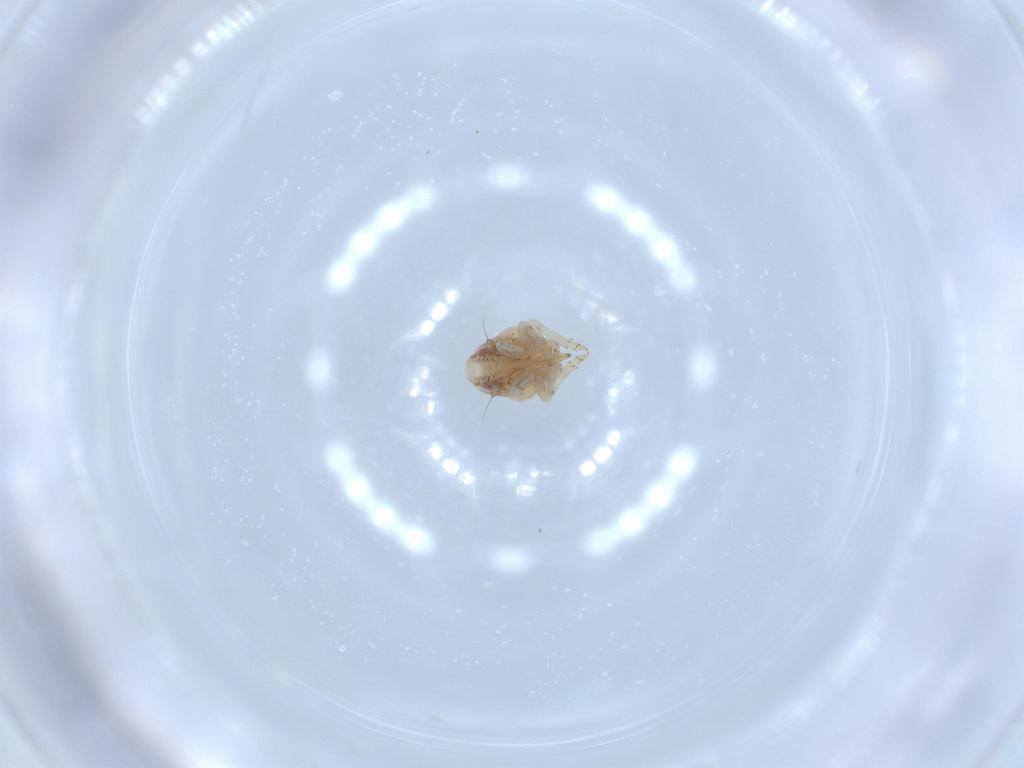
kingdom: Animalia
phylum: Arthropoda
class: Insecta
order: Hemiptera
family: Acanaloniidae
